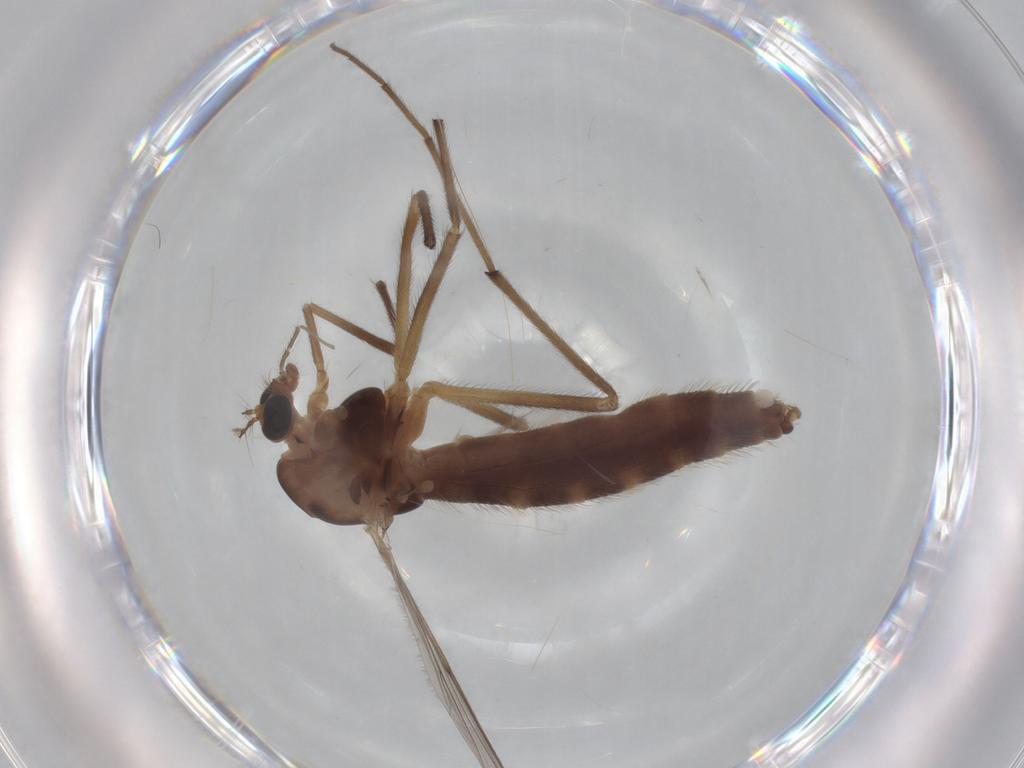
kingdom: Animalia
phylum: Arthropoda
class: Insecta
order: Diptera
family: Chironomidae
